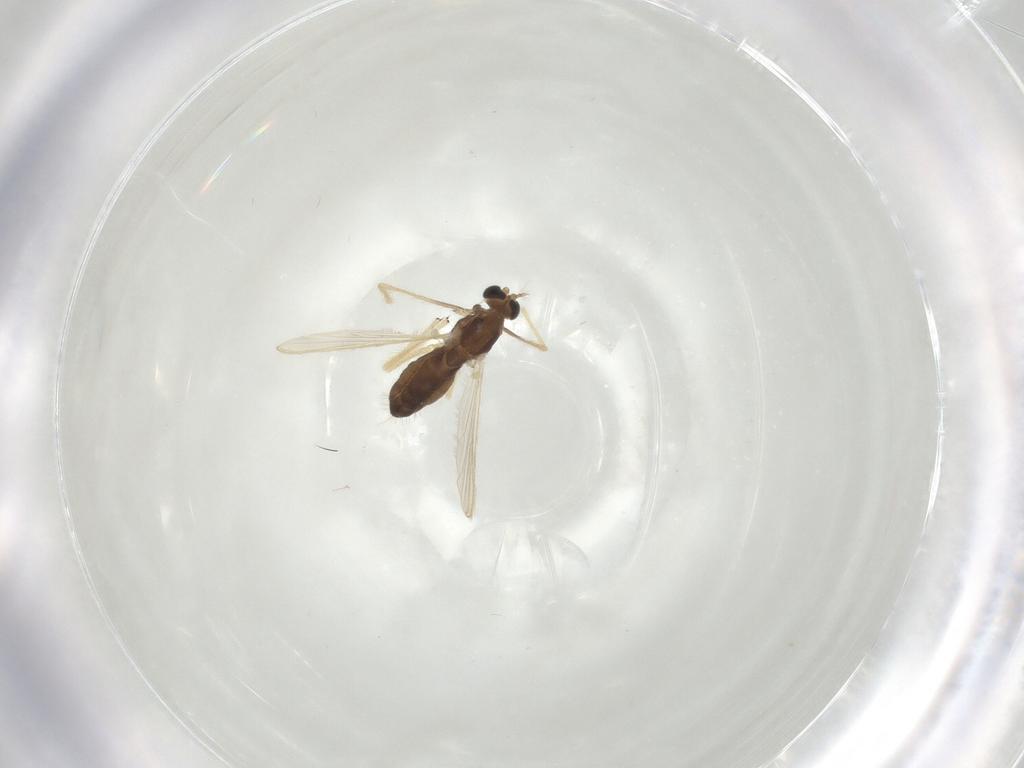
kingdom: Animalia
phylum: Arthropoda
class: Insecta
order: Diptera
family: Chironomidae
